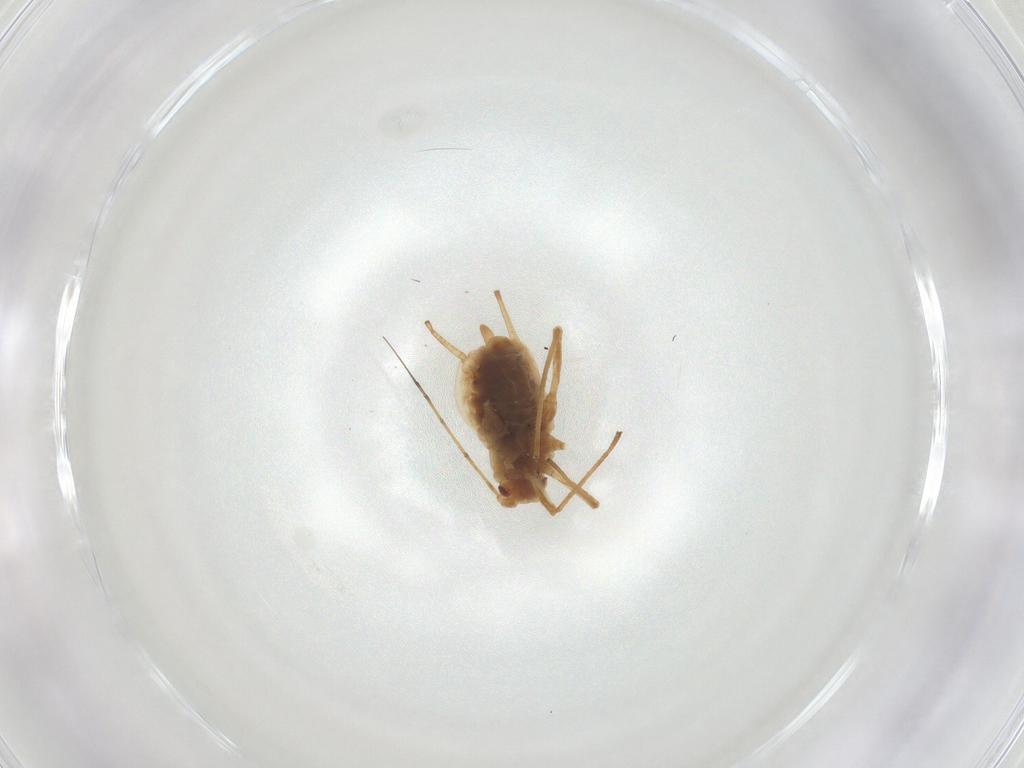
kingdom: Animalia
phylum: Arthropoda
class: Insecta
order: Hemiptera
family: Aphididae
